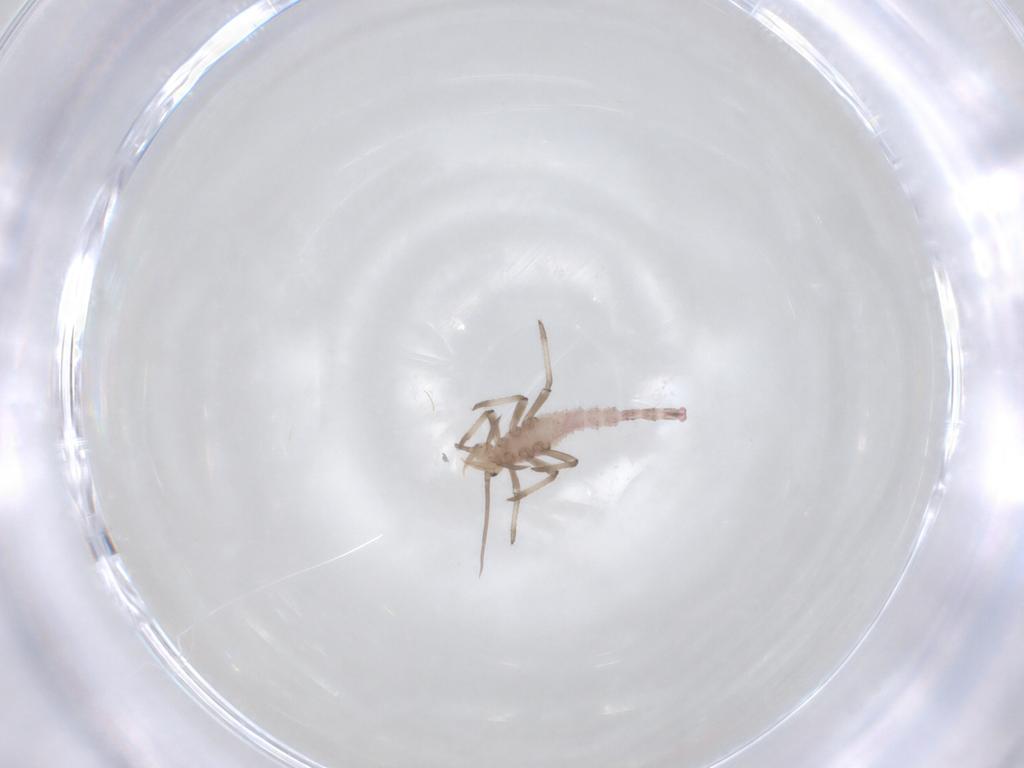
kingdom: Animalia
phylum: Arthropoda
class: Insecta
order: Neuroptera
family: Hemerobiidae
